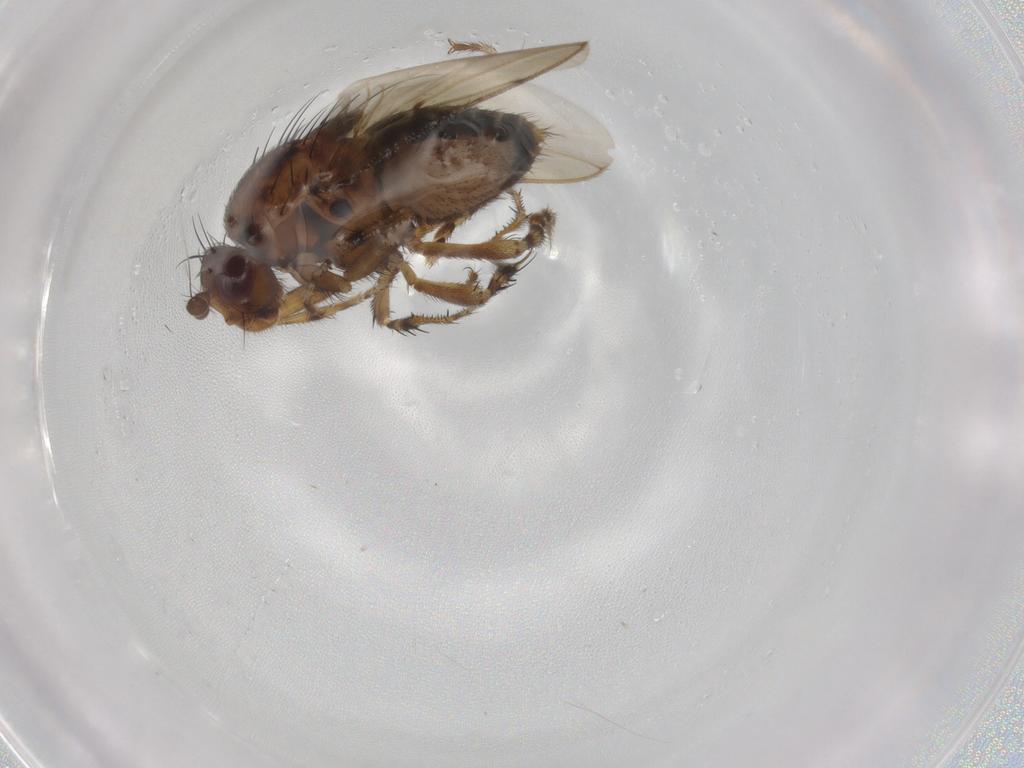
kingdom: Animalia
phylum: Arthropoda
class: Insecta
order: Diptera
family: Sphaeroceridae
